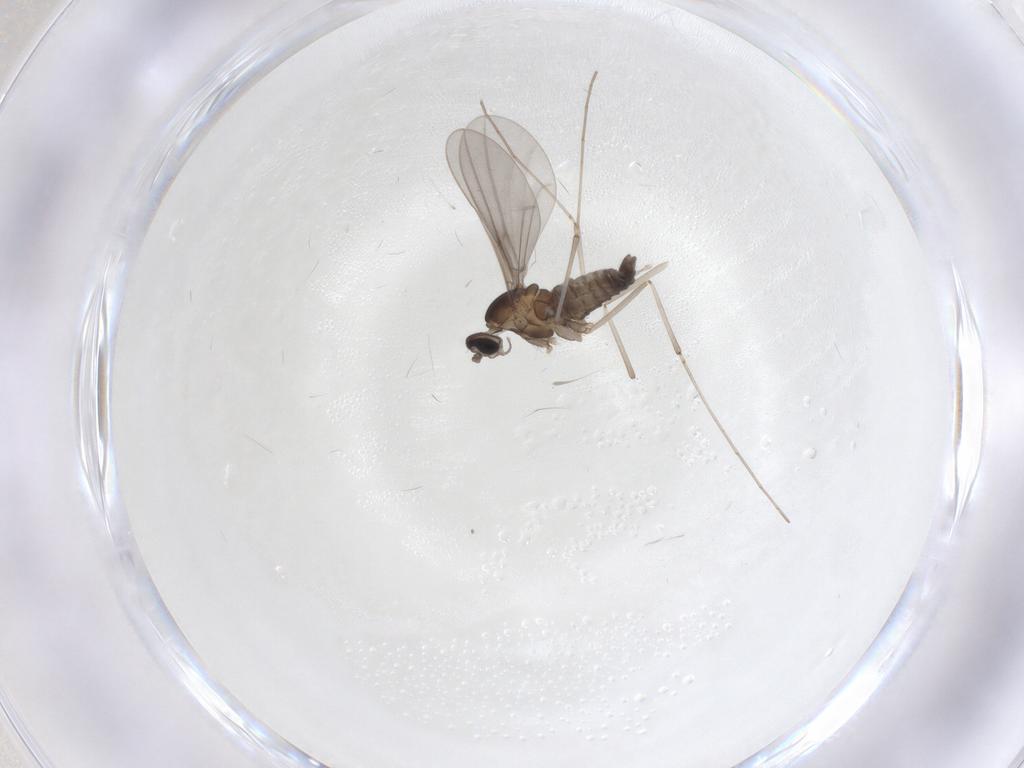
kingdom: Animalia
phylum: Arthropoda
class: Insecta
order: Diptera
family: Cecidomyiidae
